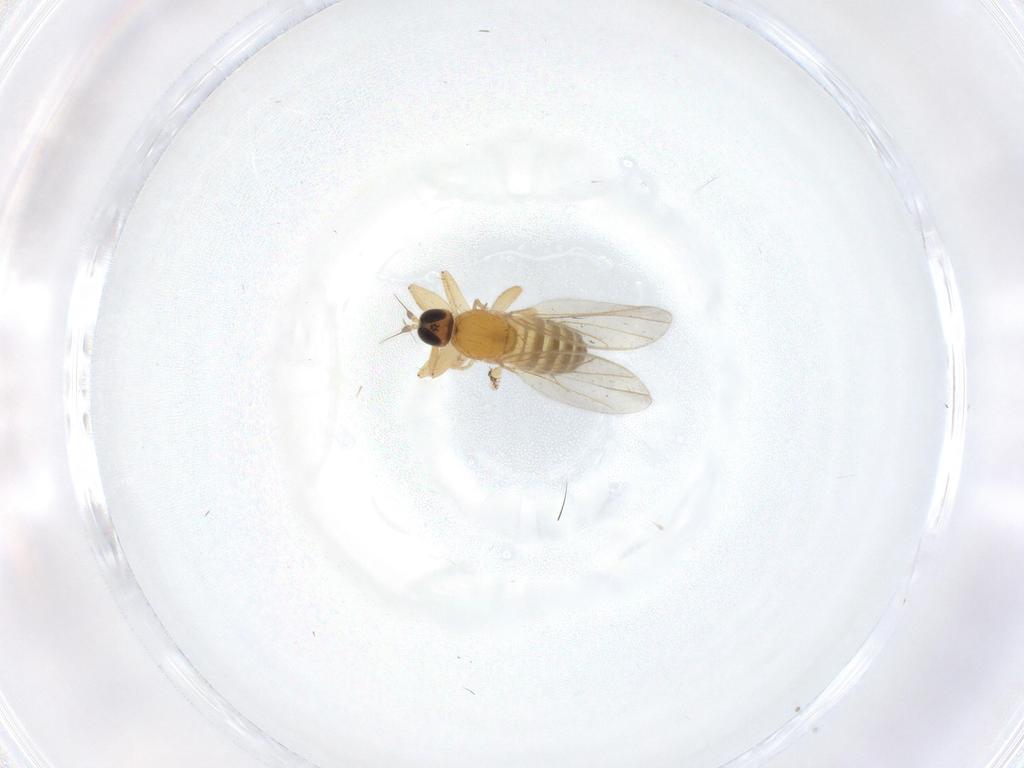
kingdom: Animalia
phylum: Arthropoda
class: Insecta
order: Diptera
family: Hybotidae
